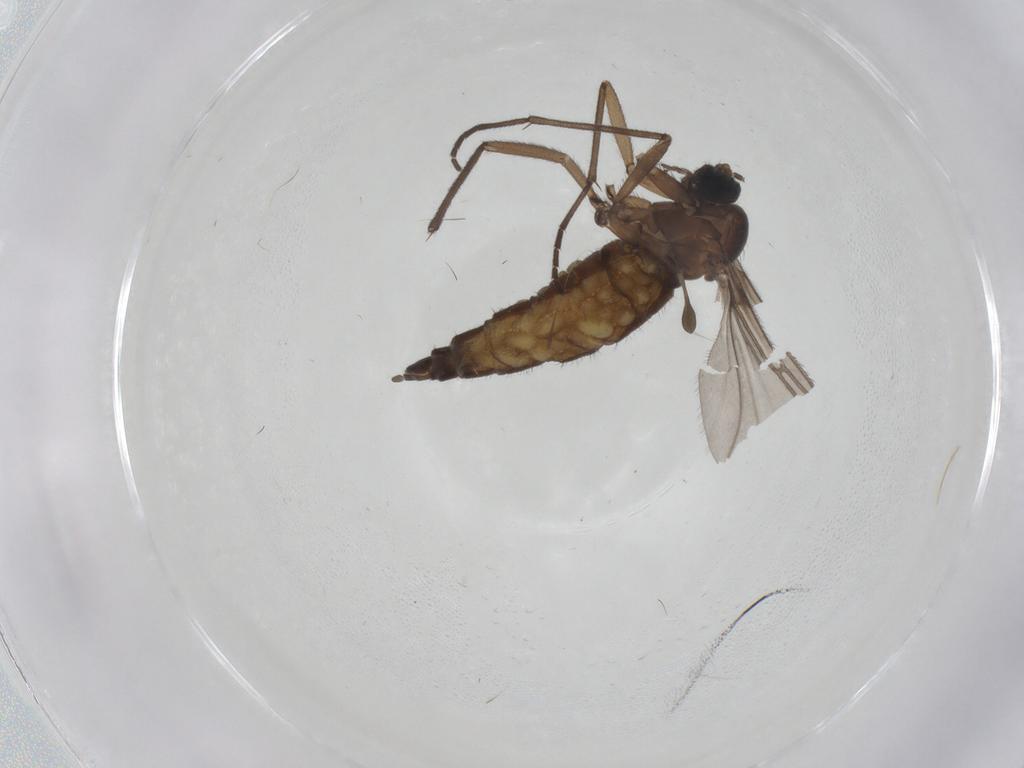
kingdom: Animalia
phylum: Arthropoda
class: Insecta
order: Diptera
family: Sciaridae
